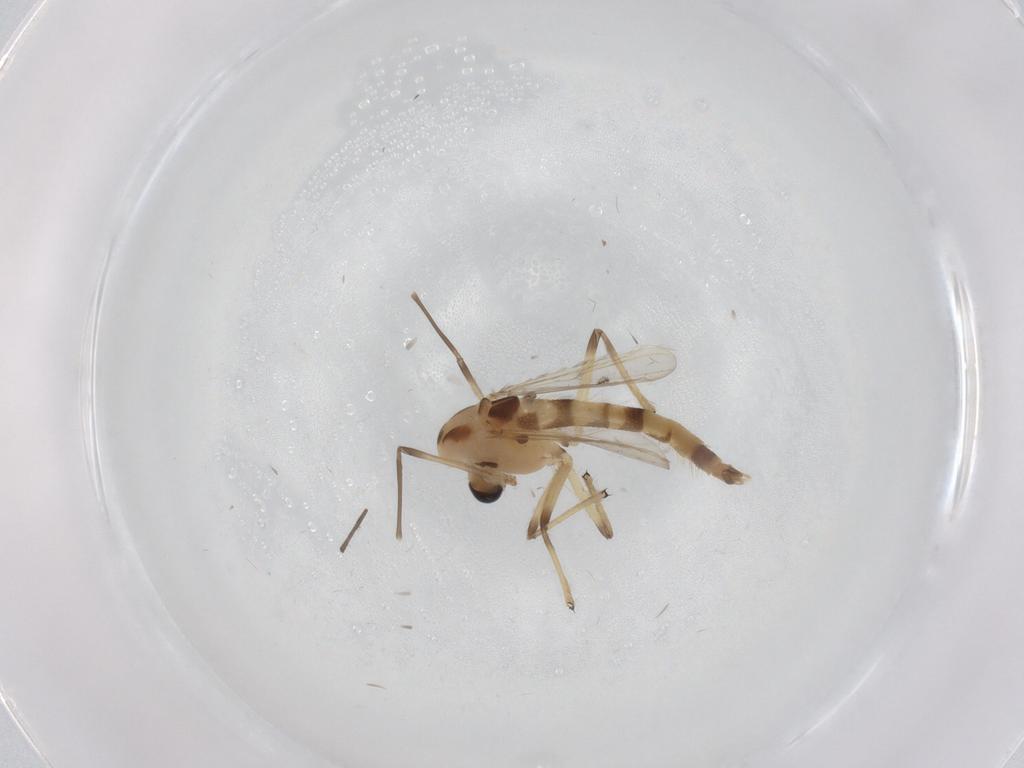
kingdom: Animalia
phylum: Arthropoda
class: Insecta
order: Diptera
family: Chironomidae
